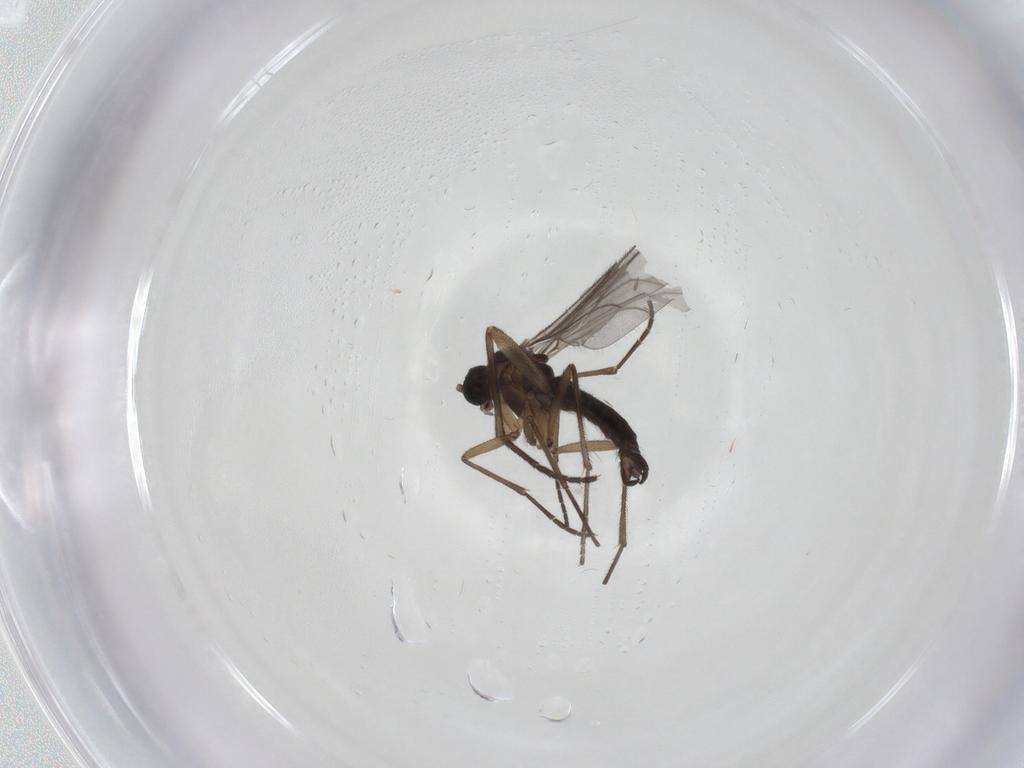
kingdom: Animalia
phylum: Arthropoda
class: Insecta
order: Diptera
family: Sciaridae
